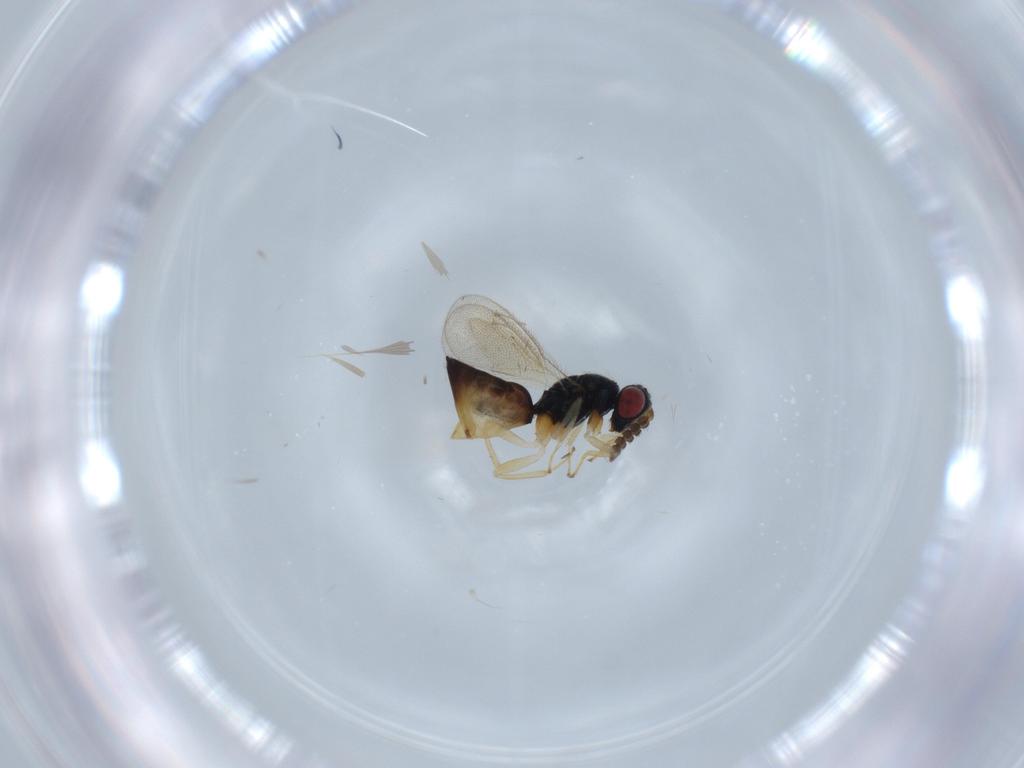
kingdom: Animalia
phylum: Arthropoda
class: Insecta
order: Hymenoptera
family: Eulophidae
